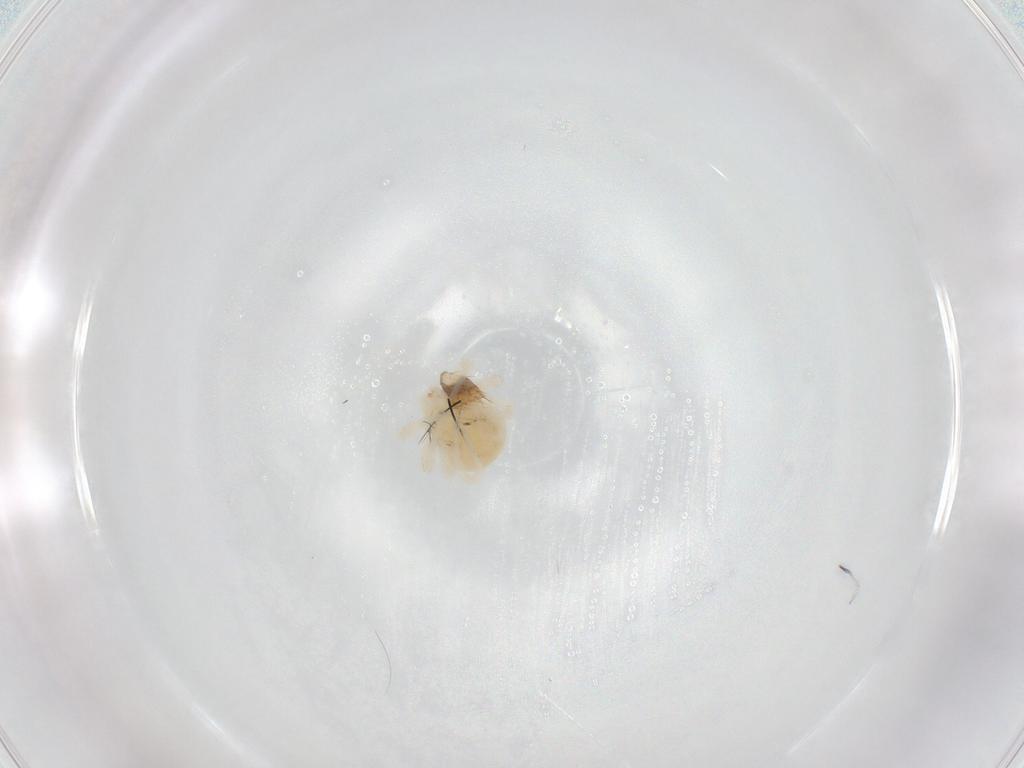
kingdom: Animalia
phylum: Arthropoda
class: Arachnida
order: Trombidiformes
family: Anystidae
